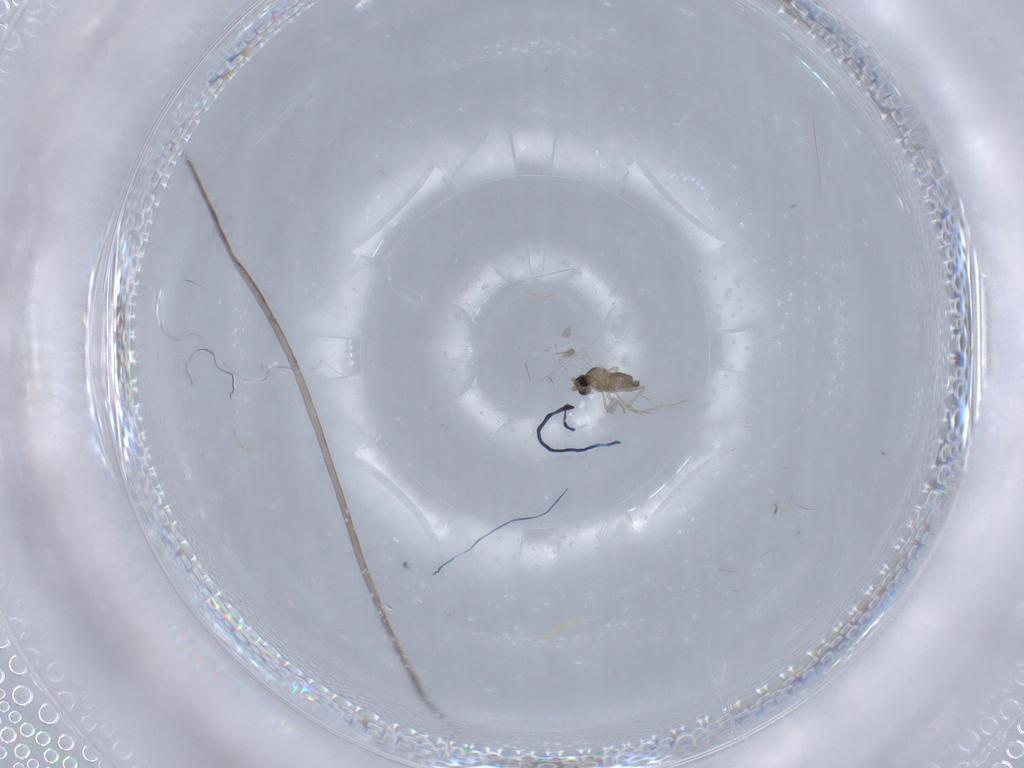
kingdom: Animalia
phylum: Arthropoda
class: Insecta
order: Diptera
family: Cecidomyiidae
